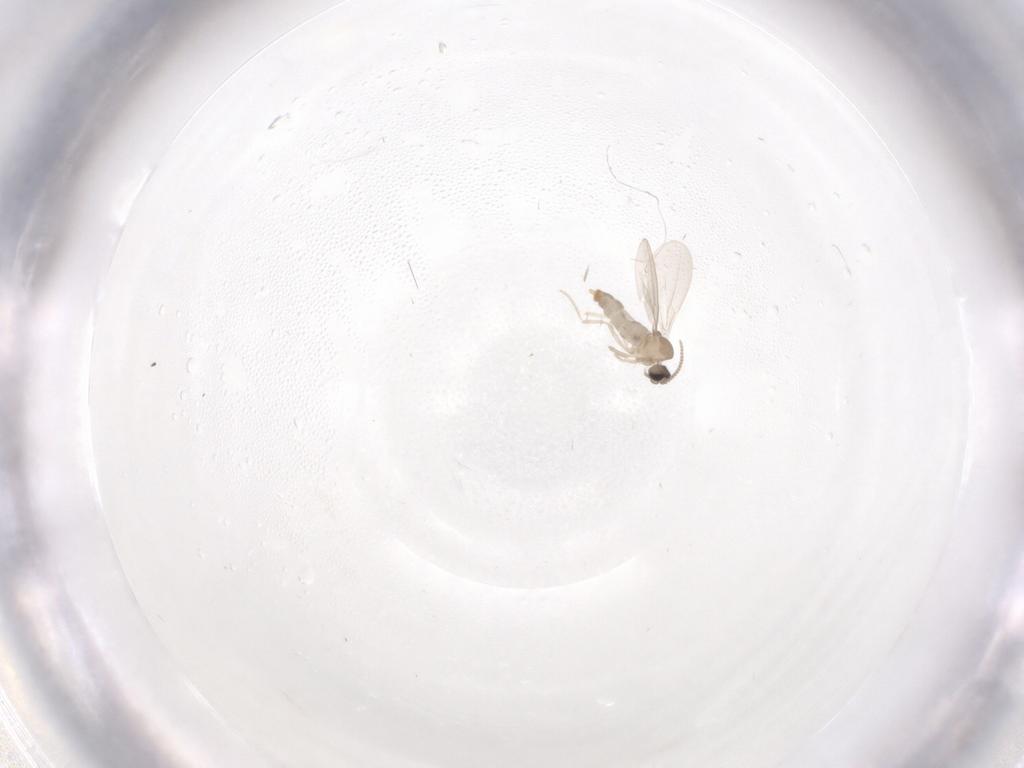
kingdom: Animalia
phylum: Arthropoda
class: Insecta
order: Diptera
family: Cecidomyiidae
